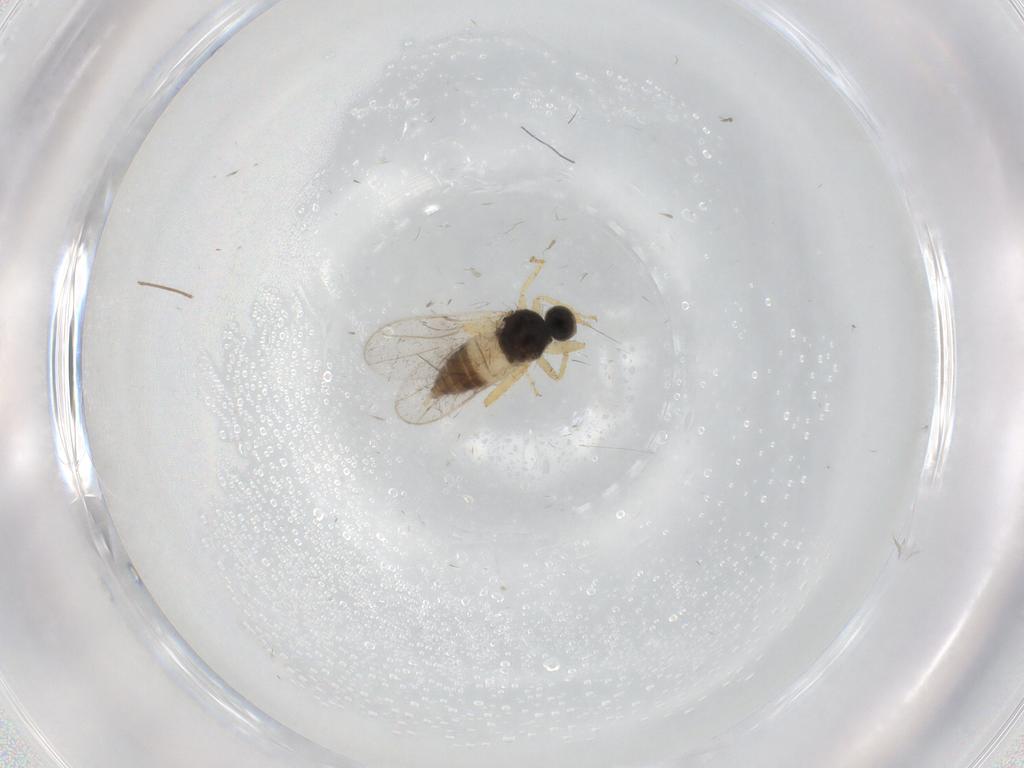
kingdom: Animalia
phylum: Arthropoda
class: Insecta
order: Diptera
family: Hybotidae
